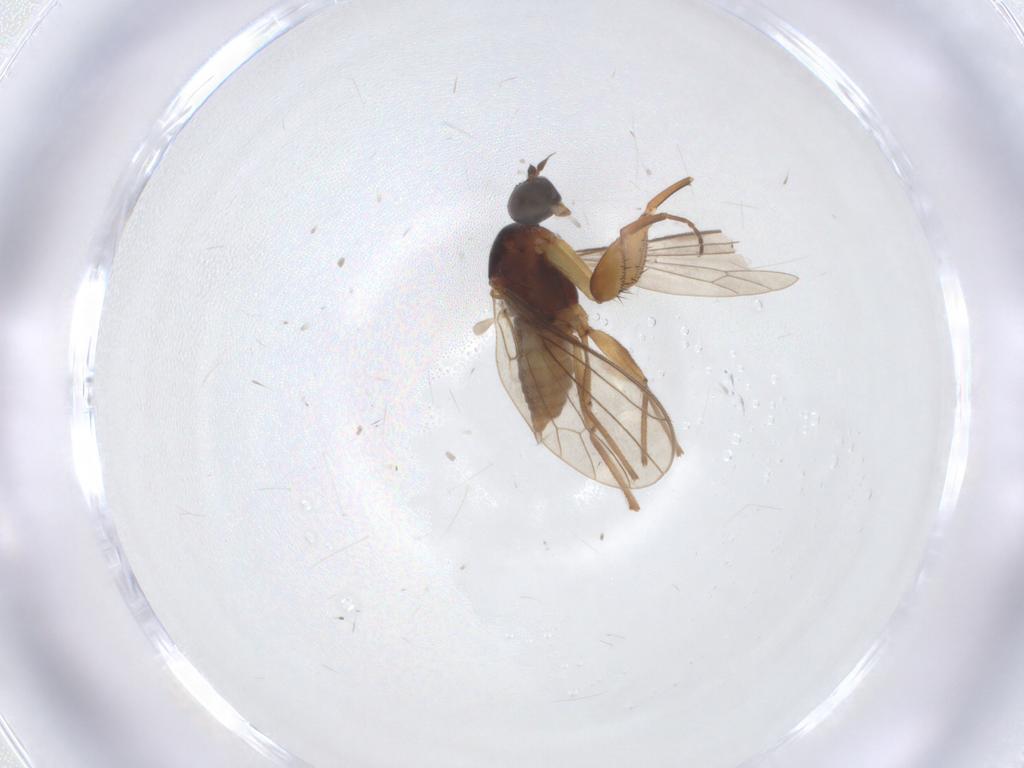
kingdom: Animalia
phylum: Arthropoda
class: Insecta
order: Diptera
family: Empididae
